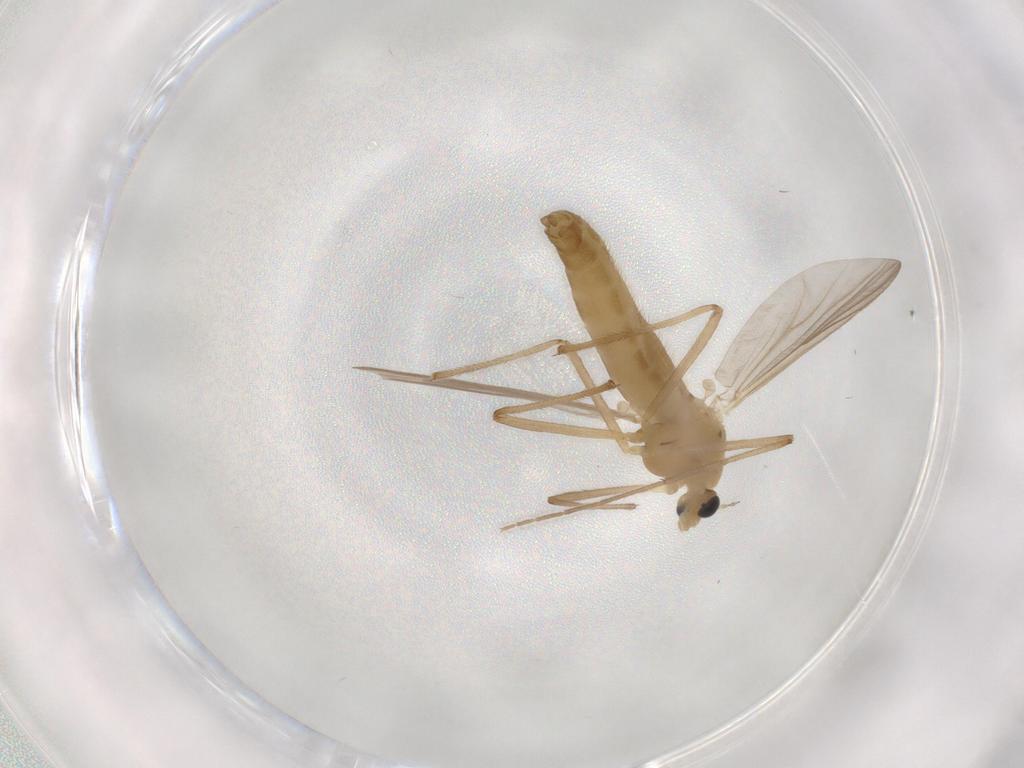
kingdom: Animalia
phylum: Arthropoda
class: Insecta
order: Diptera
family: Chironomidae
